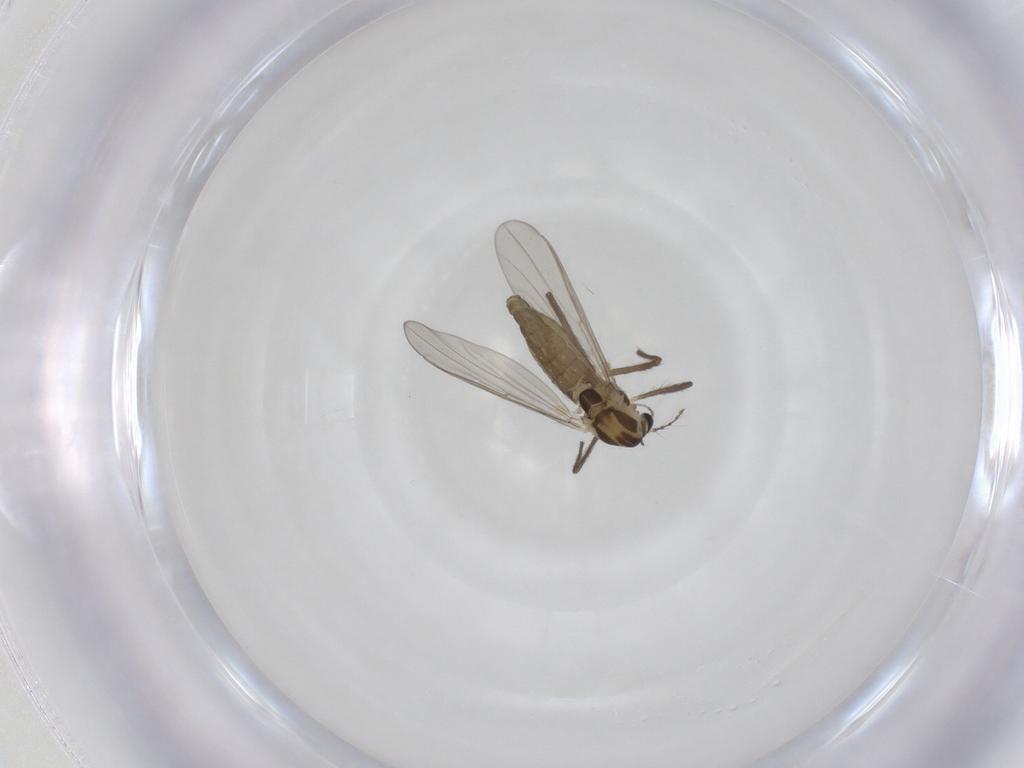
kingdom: Animalia
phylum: Arthropoda
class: Insecta
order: Diptera
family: Chironomidae
